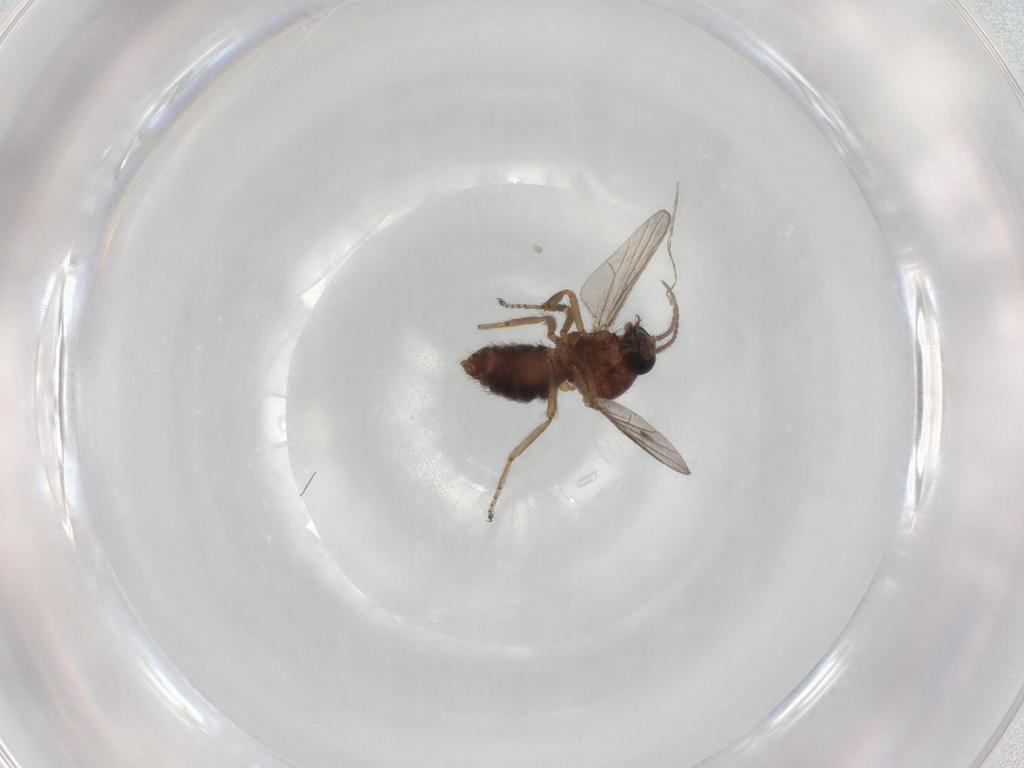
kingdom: Animalia
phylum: Arthropoda
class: Insecta
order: Diptera
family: Ceratopogonidae
